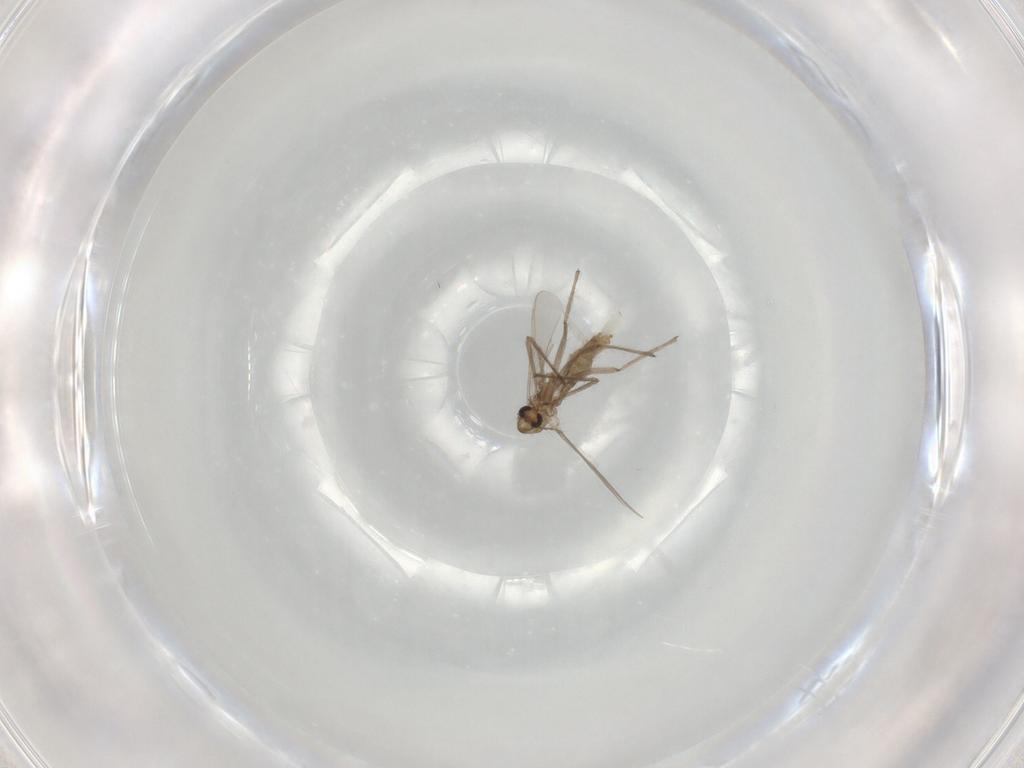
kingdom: Animalia
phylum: Arthropoda
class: Insecta
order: Diptera
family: Chironomidae
